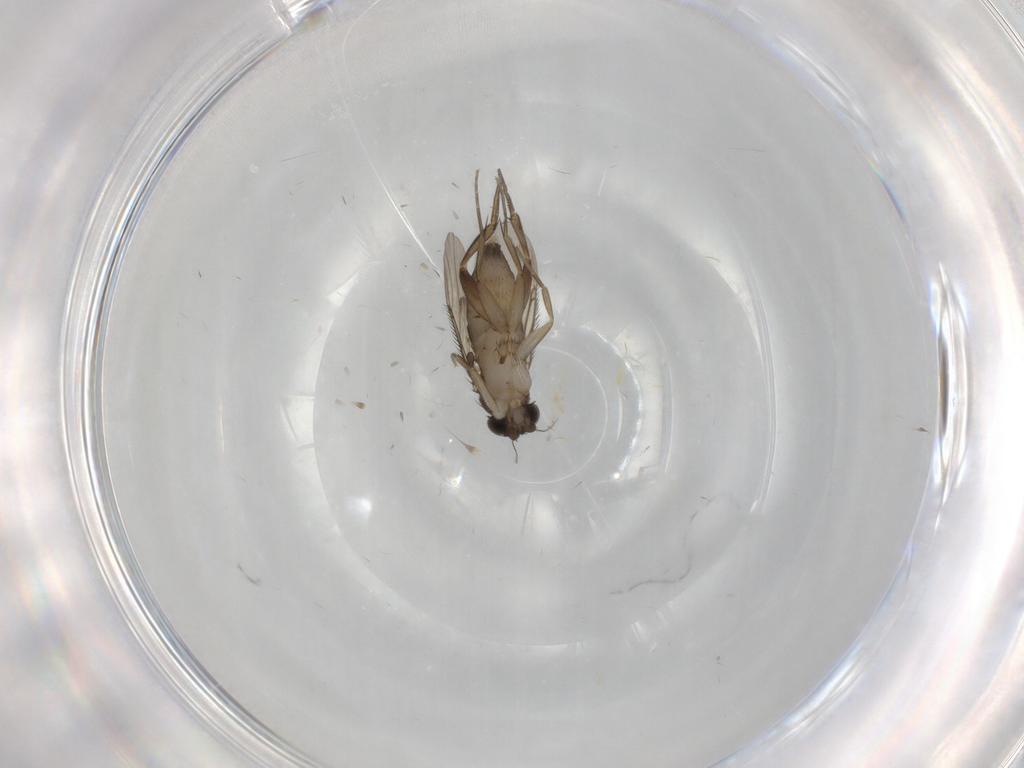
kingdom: Animalia
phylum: Arthropoda
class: Insecta
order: Diptera
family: Phoridae
